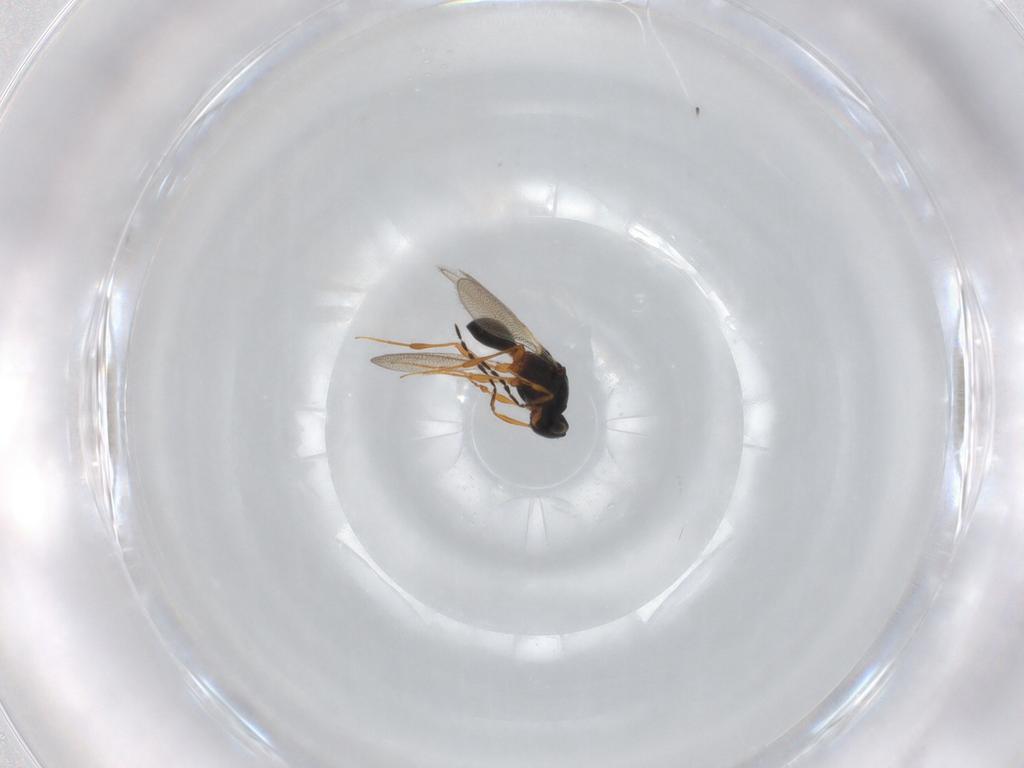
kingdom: Animalia
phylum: Arthropoda
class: Insecta
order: Hymenoptera
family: Platygastridae
